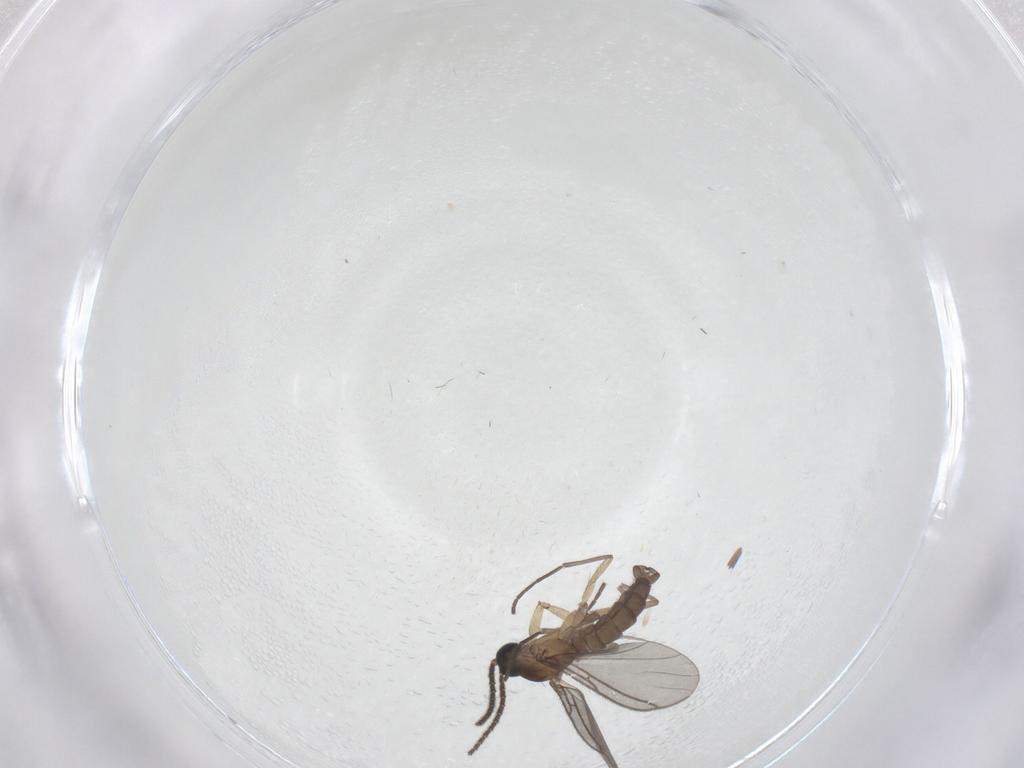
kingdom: Animalia
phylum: Arthropoda
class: Insecta
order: Diptera
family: Sciaridae
